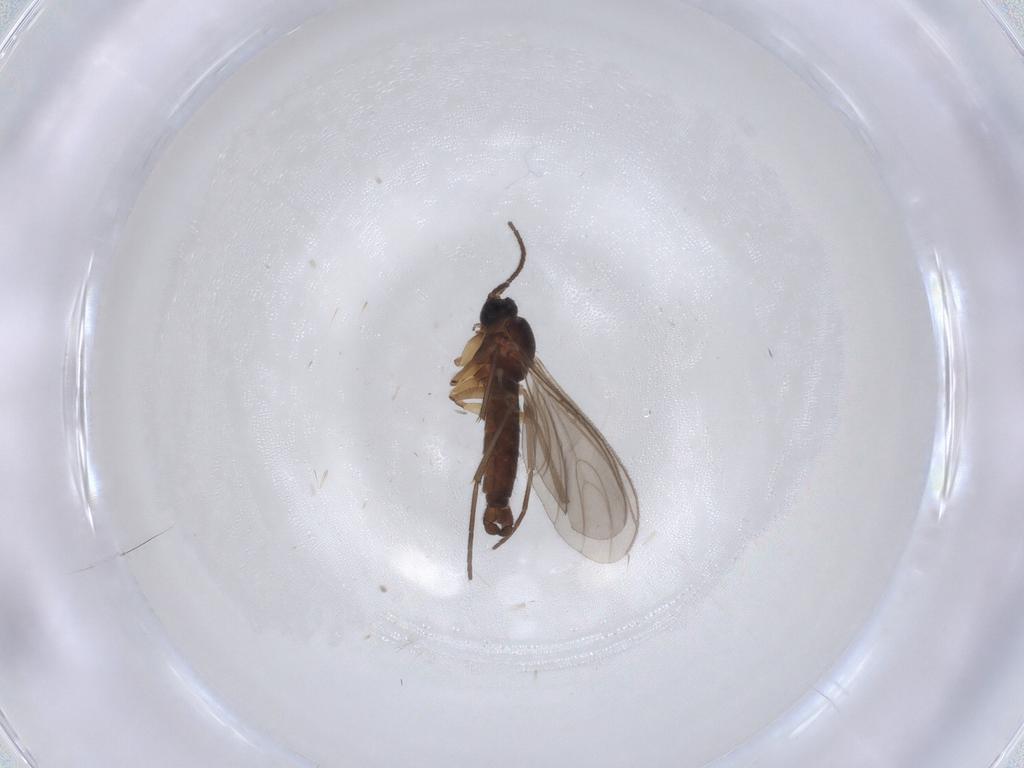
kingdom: Animalia
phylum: Arthropoda
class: Insecta
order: Diptera
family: Sciaridae
